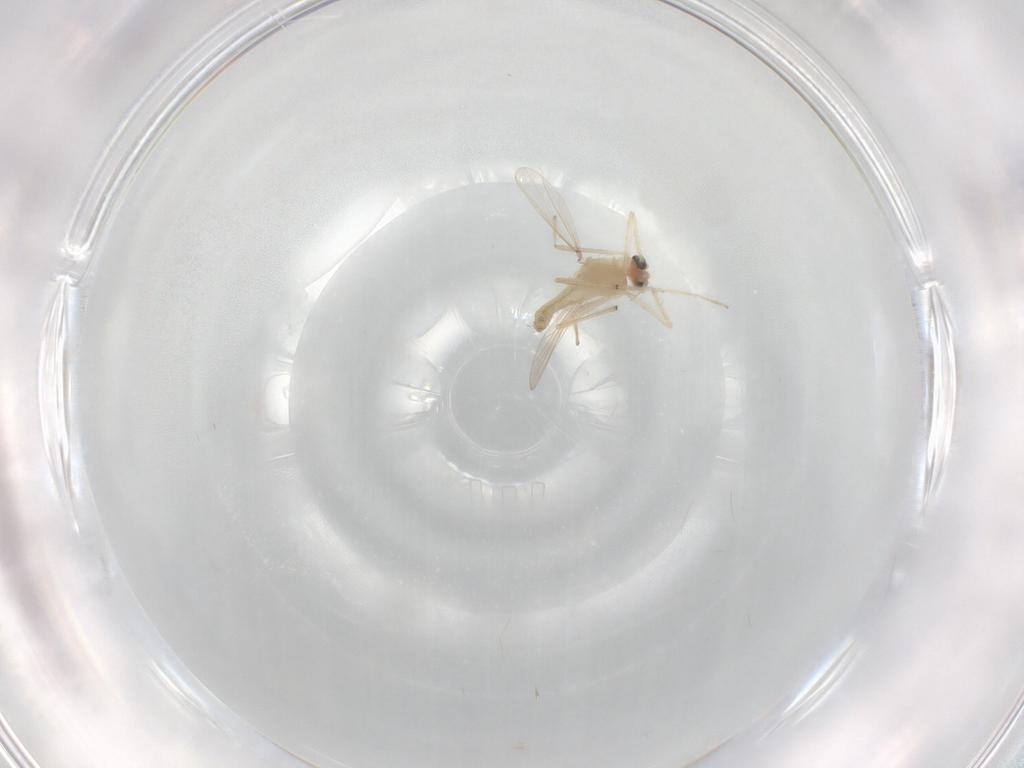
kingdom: Animalia
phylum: Arthropoda
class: Insecta
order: Diptera
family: Chironomidae
